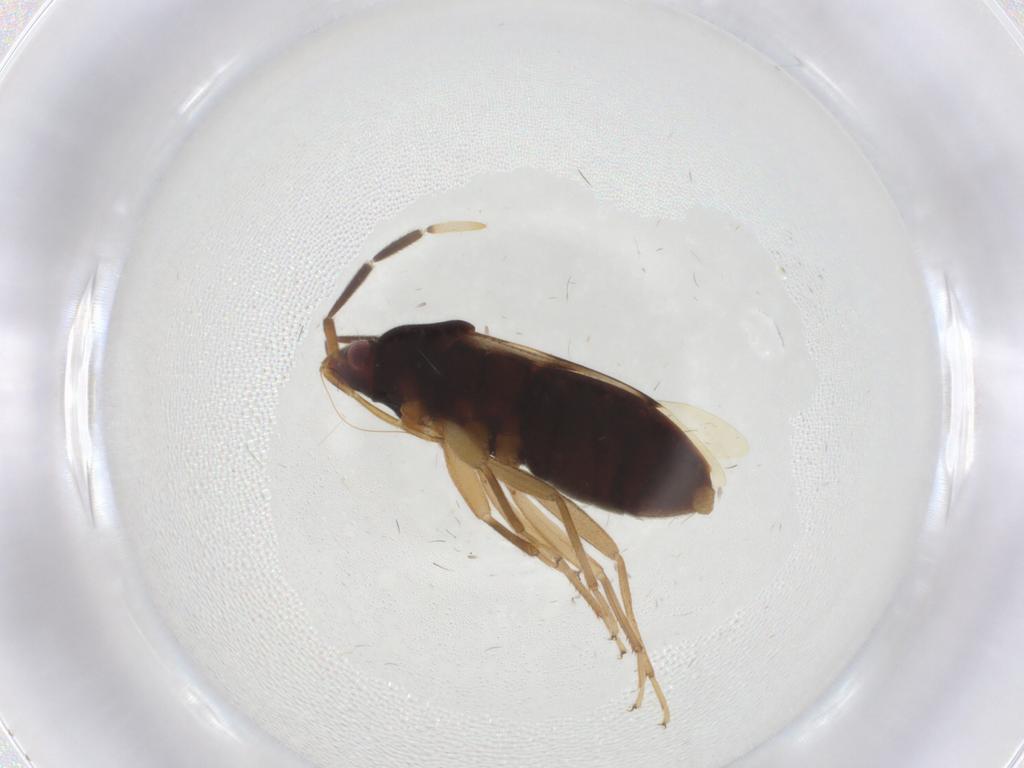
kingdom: Animalia
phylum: Arthropoda
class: Insecta
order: Hemiptera
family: Rhyparochromidae
